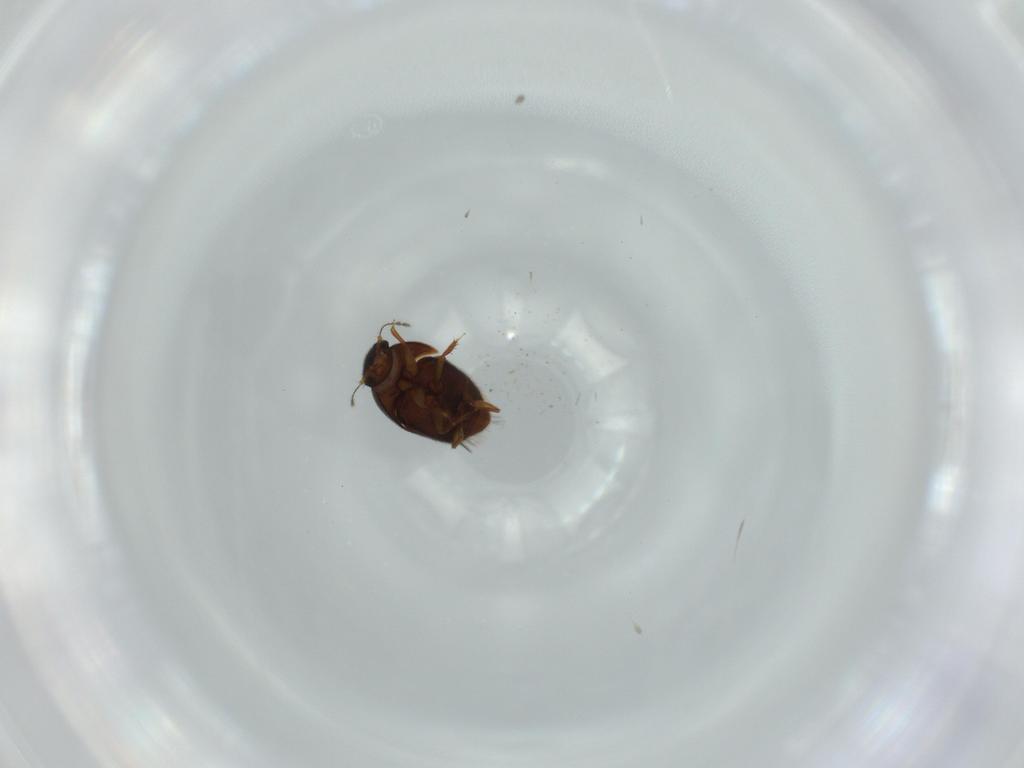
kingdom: Animalia
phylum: Arthropoda
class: Insecta
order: Coleoptera
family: Ptilodactylidae
